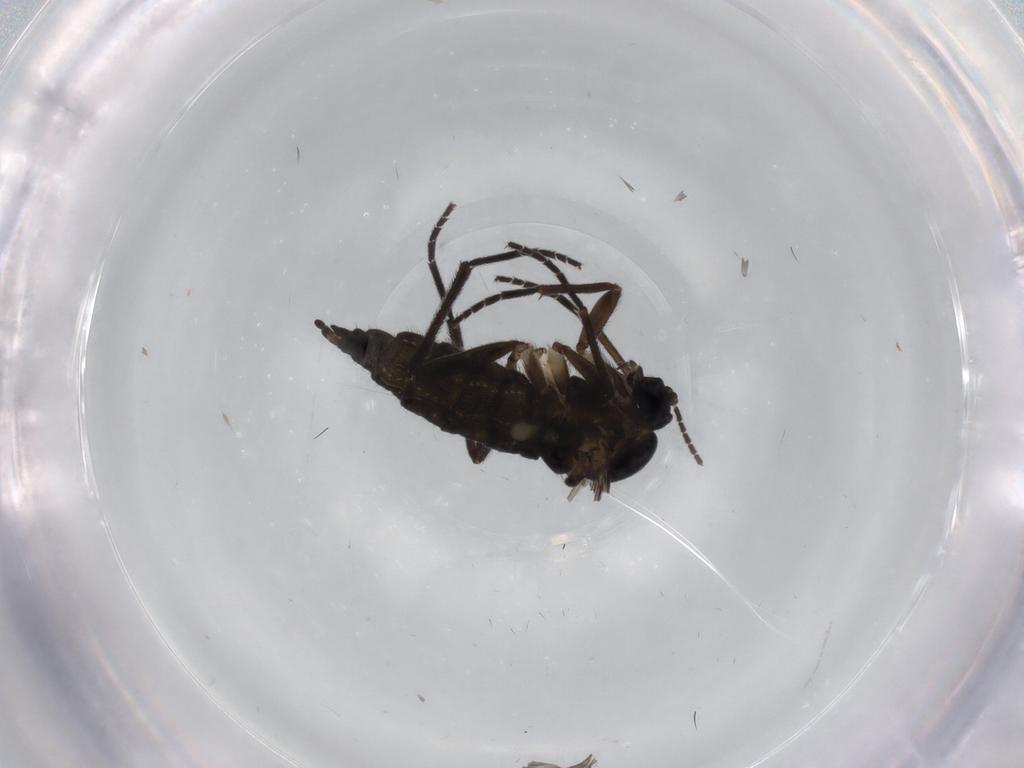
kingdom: Animalia
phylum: Arthropoda
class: Insecta
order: Diptera
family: Sciaridae
